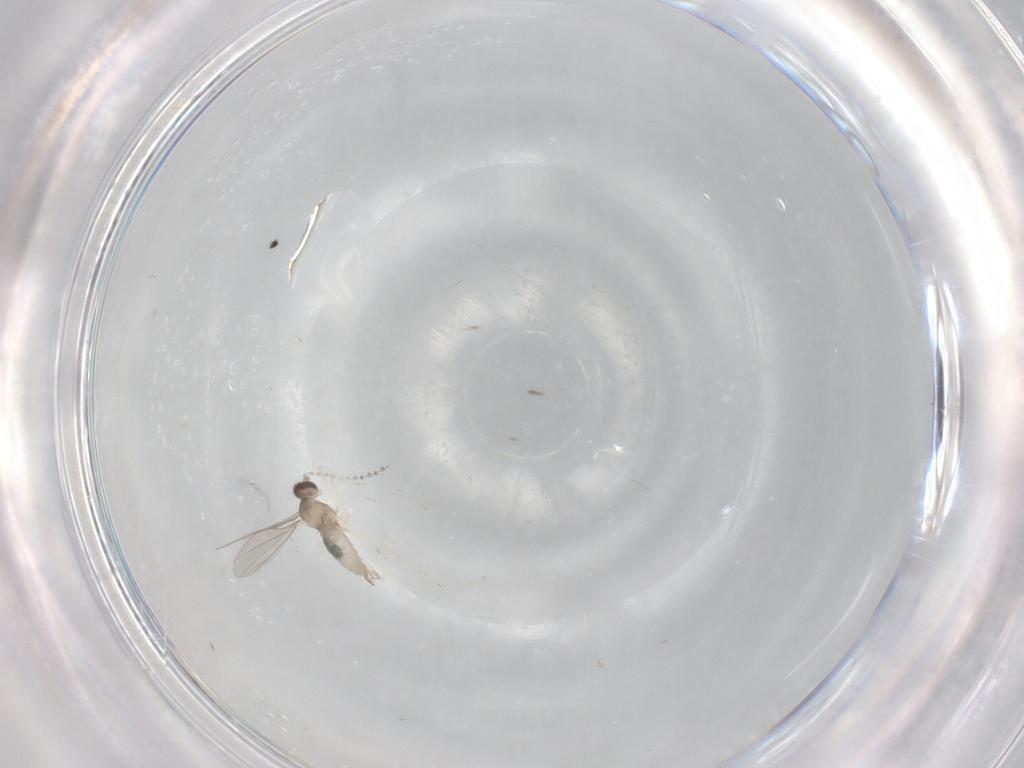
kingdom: Animalia
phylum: Arthropoda
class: Insecta
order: Diptera
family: Cecidomyiidae
